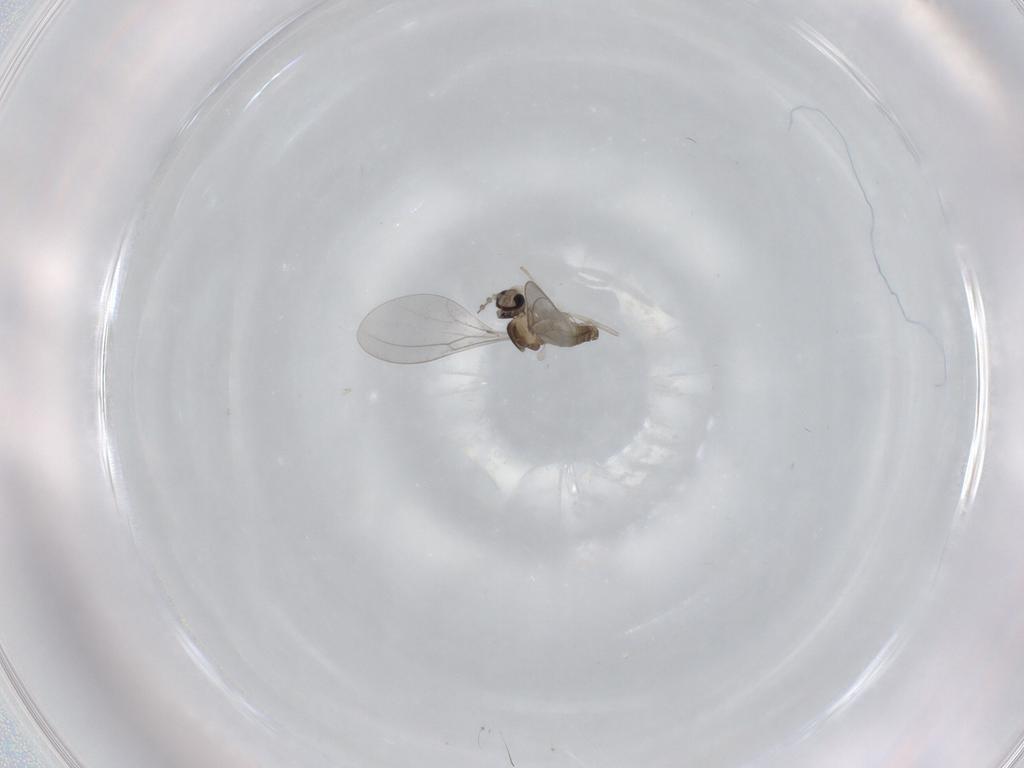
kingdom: Animalia
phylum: Arthropoda
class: Insecta
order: Diptera
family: Cecidomyiidae
